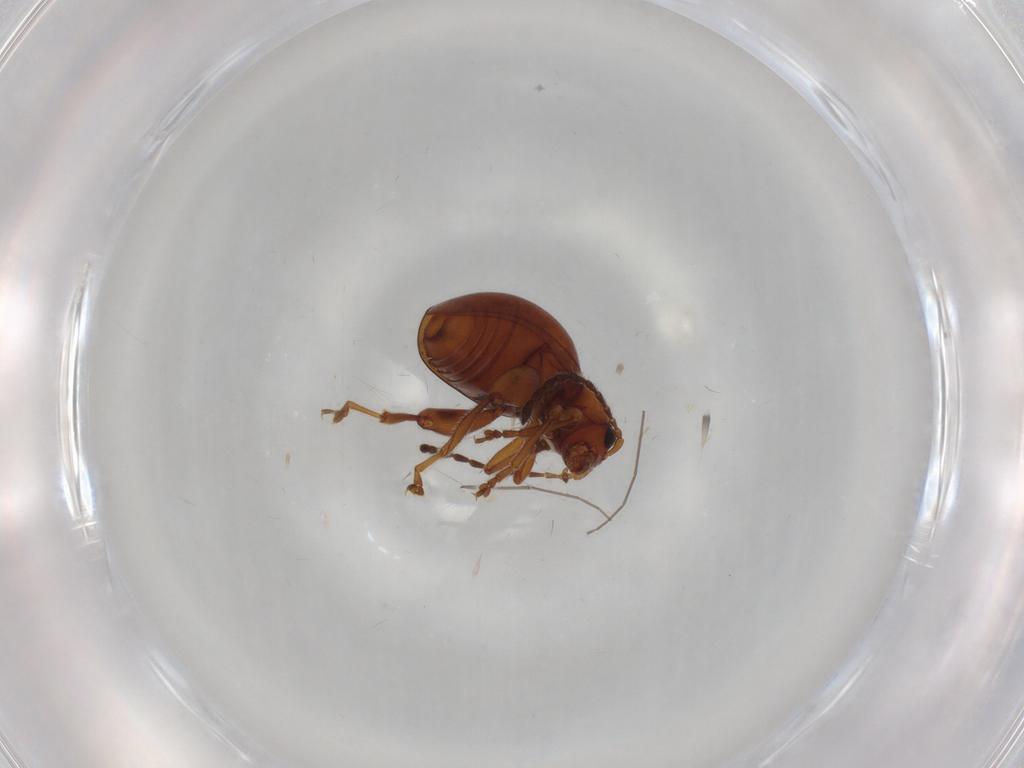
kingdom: Animalia
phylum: Arthropoda
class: Insecta
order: Coleoptera
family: Chrysomelidae
